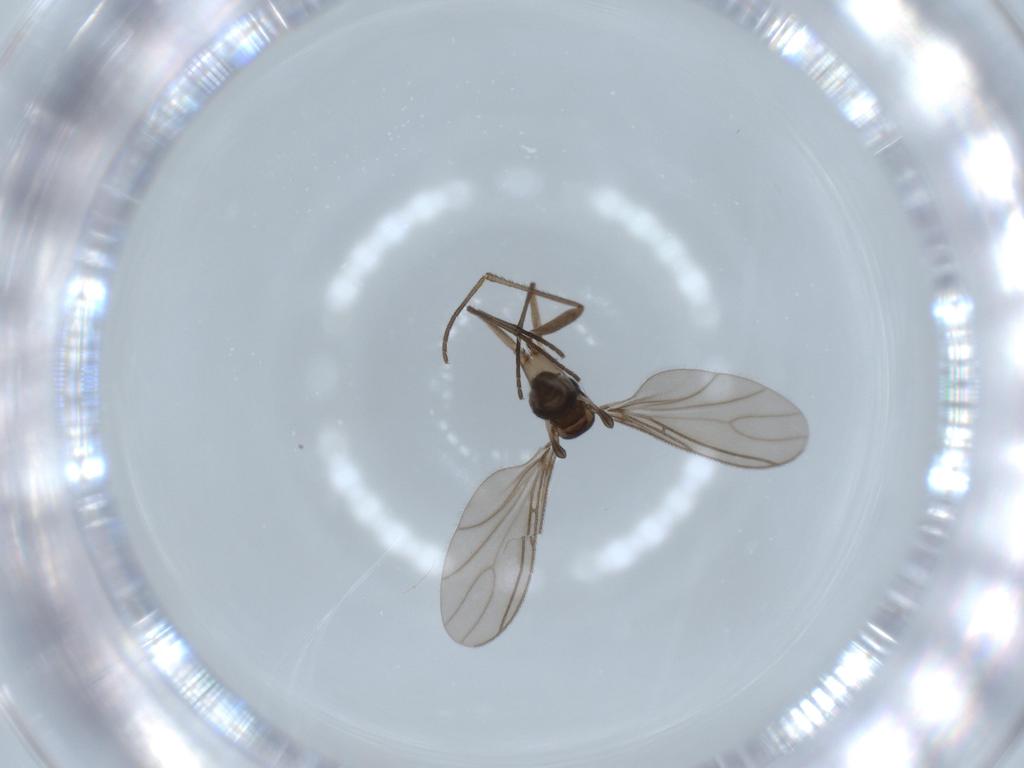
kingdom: Animalia
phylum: Arthropoda
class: Insecta
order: Diptera
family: Sciaridae
